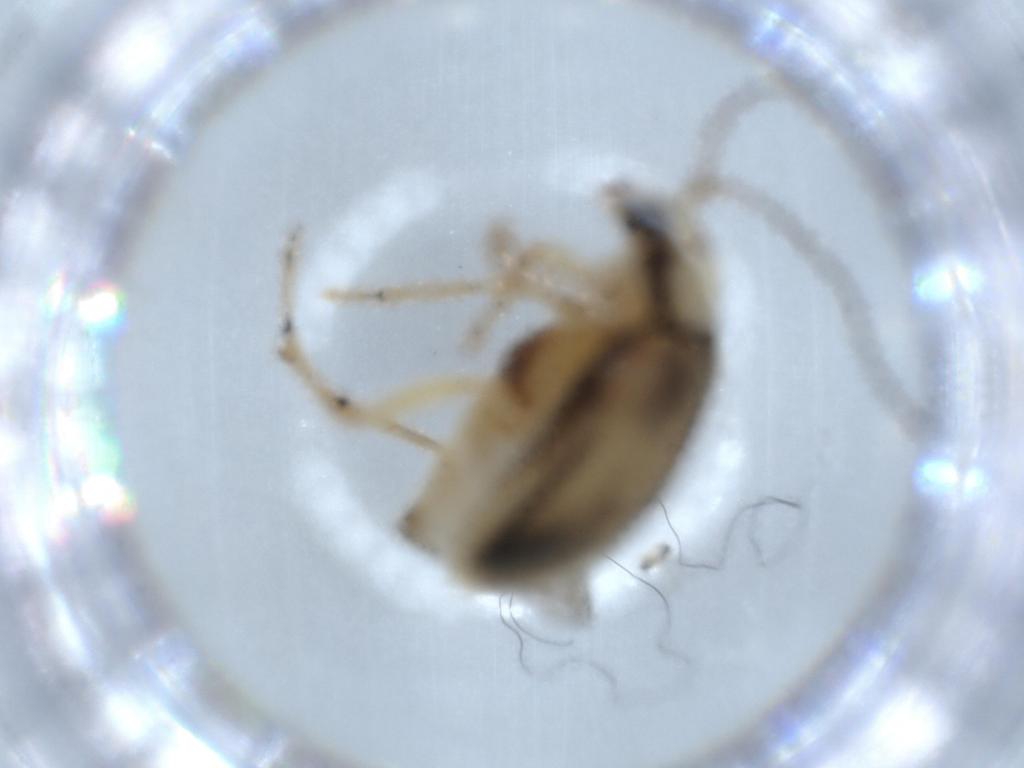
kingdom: Animalia
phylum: Arthropoda
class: Insecta
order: Coleoptera
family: Chrysomelidae
